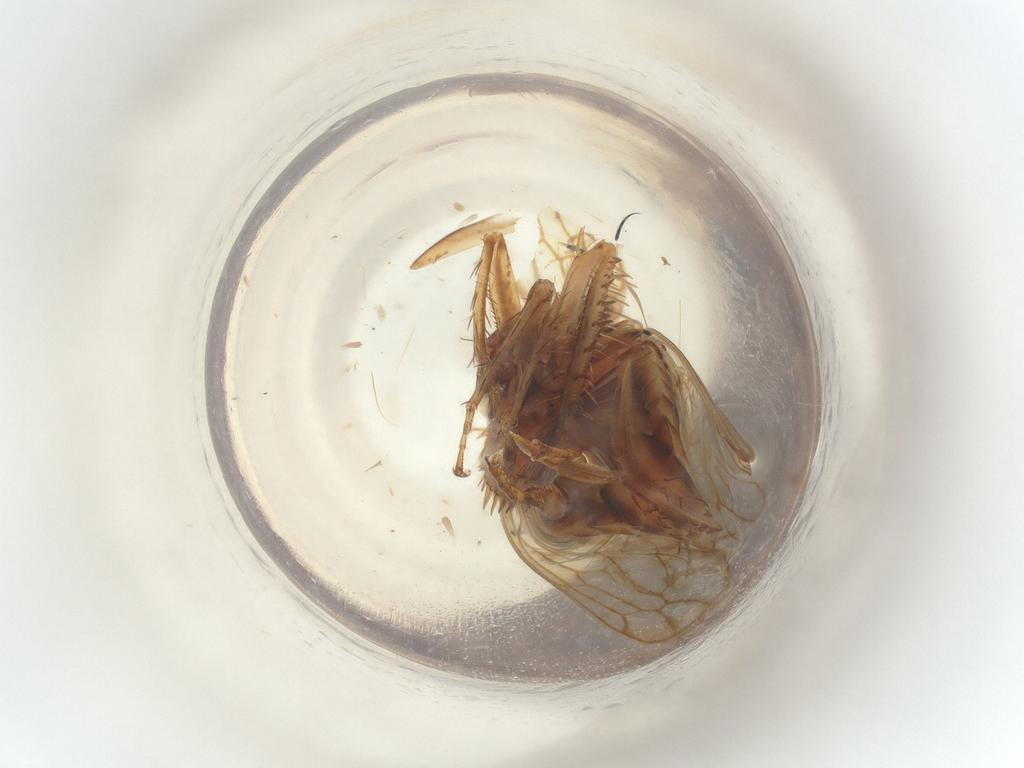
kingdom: Animalia
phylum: Arthropoda
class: Insecta
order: Hemiptera
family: Cicadellidae
